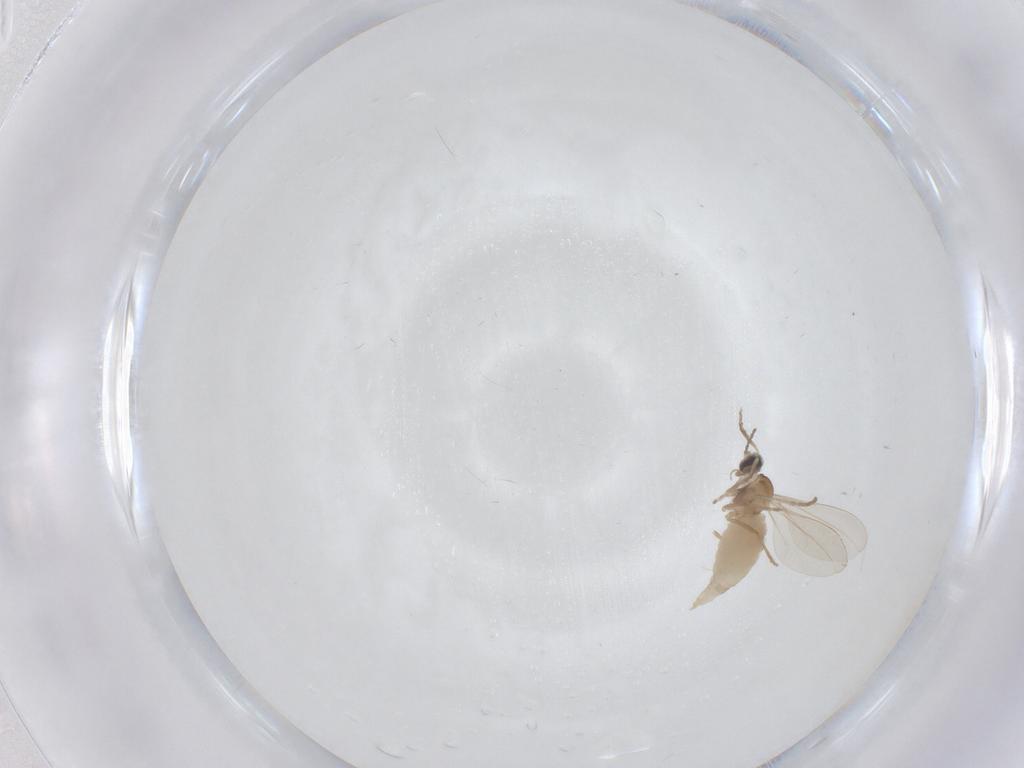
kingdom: Animalia
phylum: Arthropoda
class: Insecta
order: Diptera
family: Cecidomyiidae
